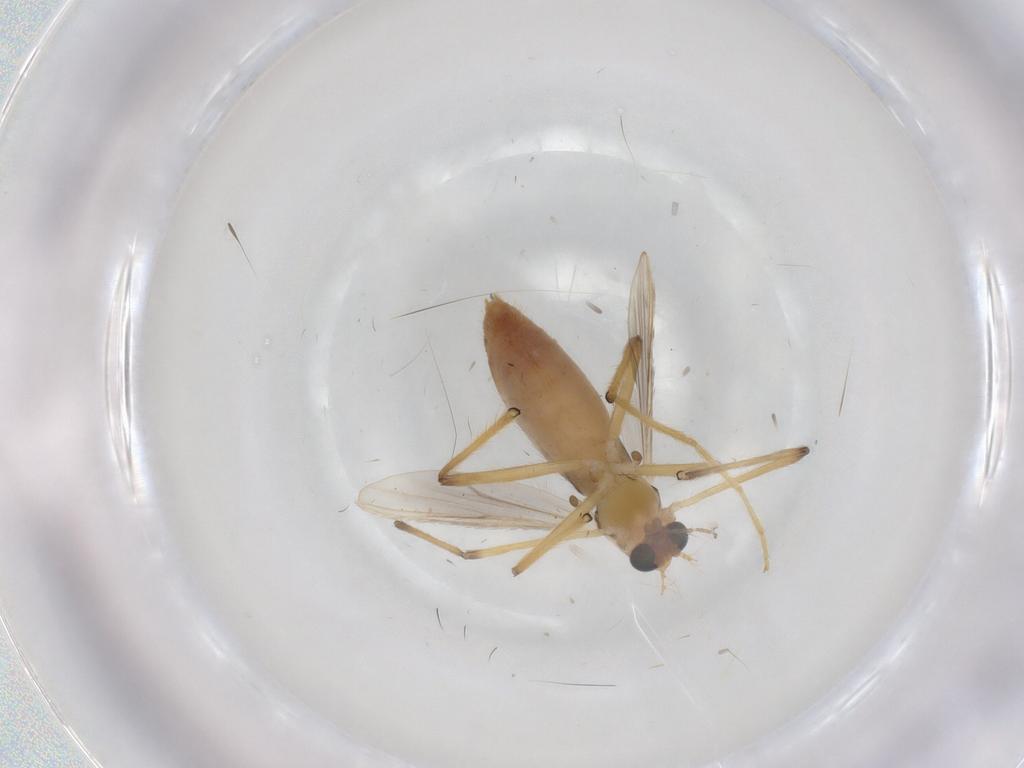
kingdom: Animalia
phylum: Arthropoda
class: Insecta
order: Diptera
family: Chironomidae
